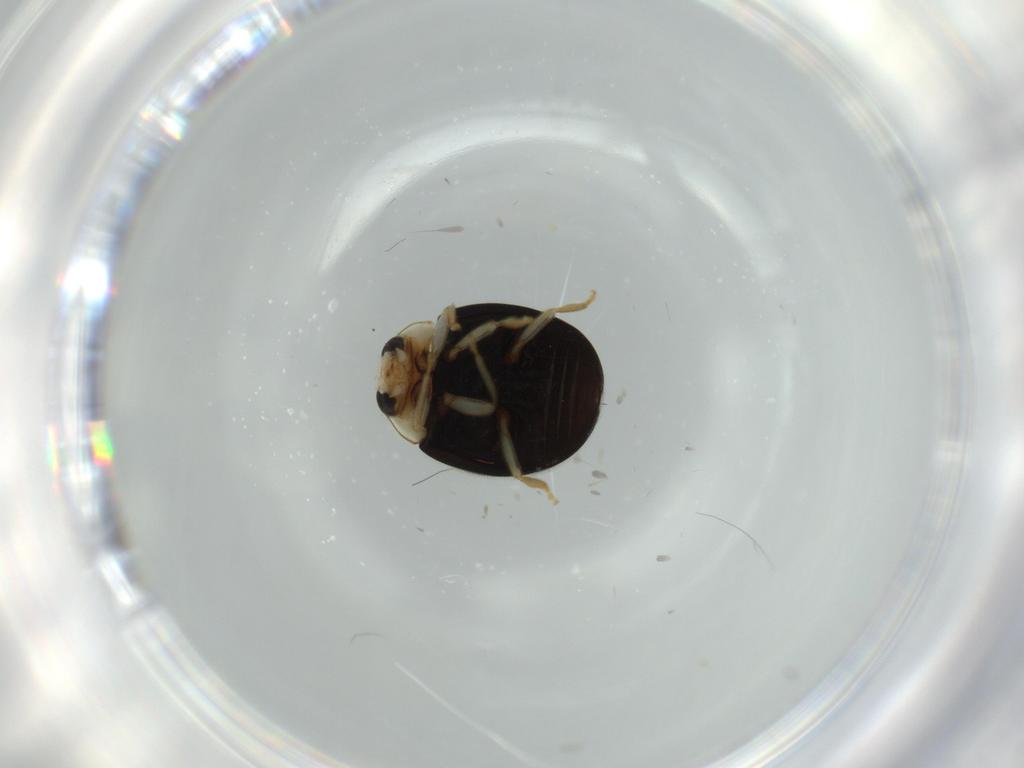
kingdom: Animalia
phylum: Arthropoda
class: Insecta
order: Coleoptera
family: Coccinellidae
